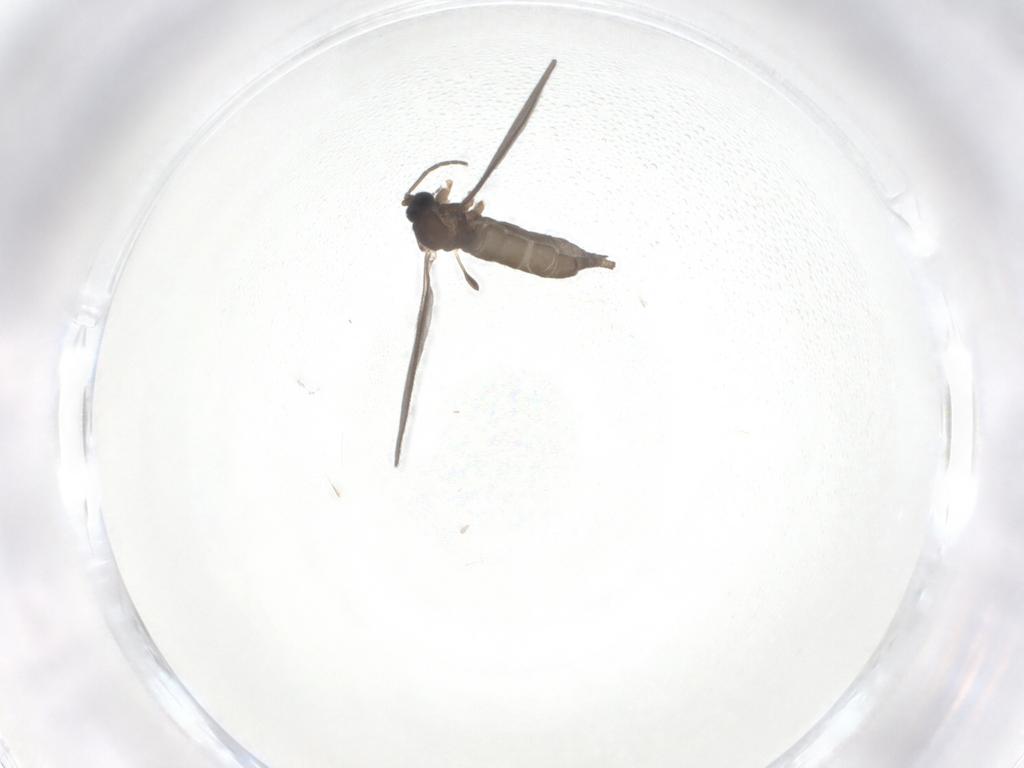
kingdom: Animalia
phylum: Arthropoda
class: Insecta
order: Diptera
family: Sciaridae
